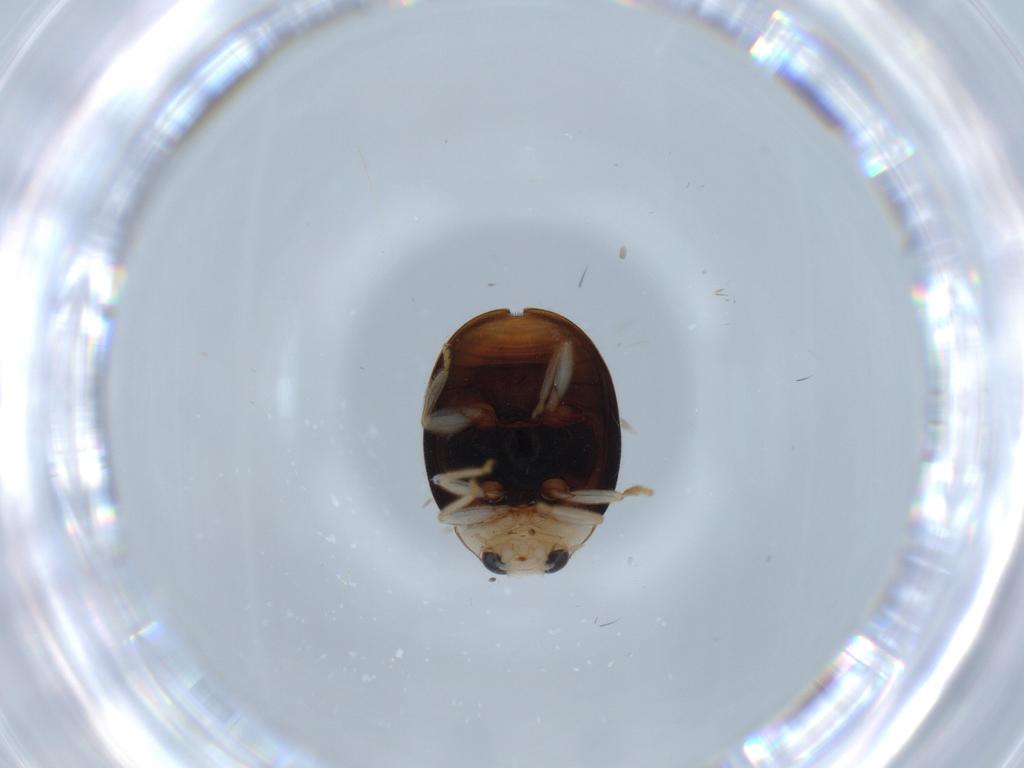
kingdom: Animalia
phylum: Arthropoda
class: Insecta
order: Coleoptera
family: Coccinellidae
